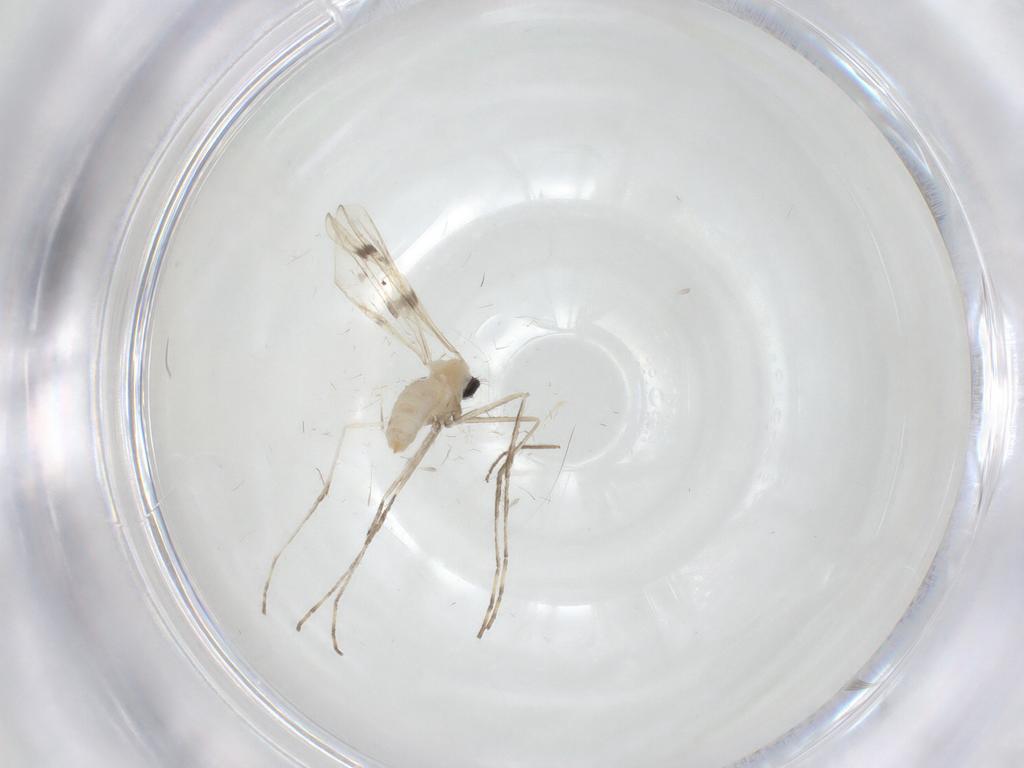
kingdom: Animalia
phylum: Arthropoda
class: Insecta
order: Diptera
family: Cecidomyiidae
